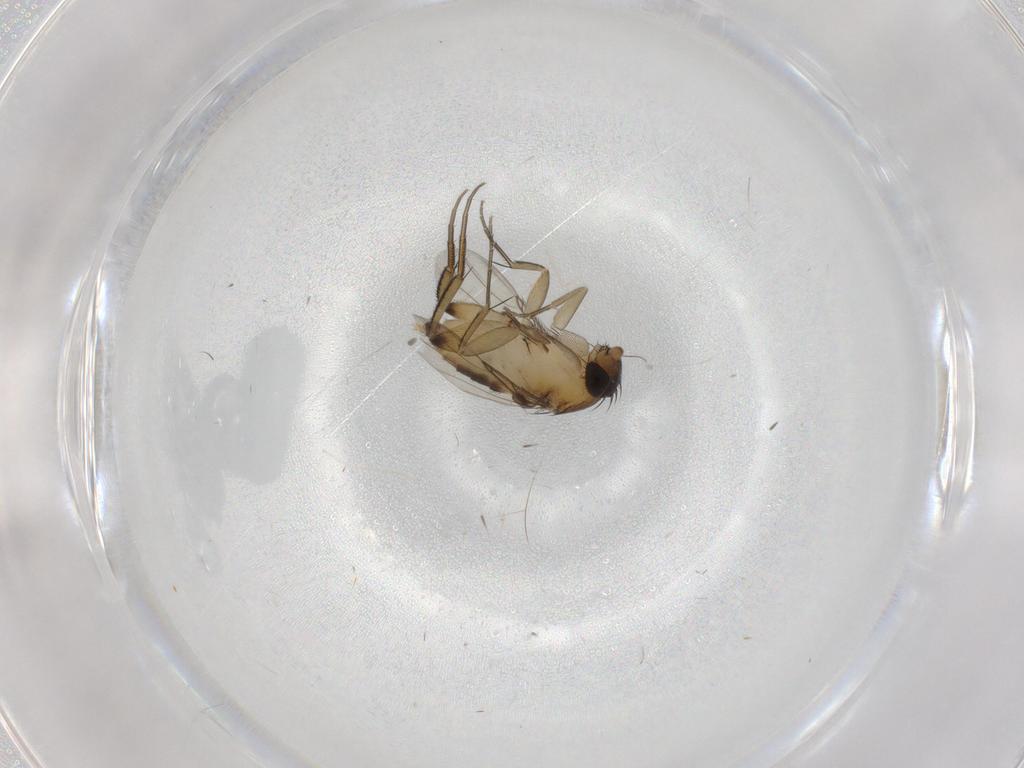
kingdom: Animalia
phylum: Arthropoda
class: Insecta
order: Diptera
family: Phoridae
